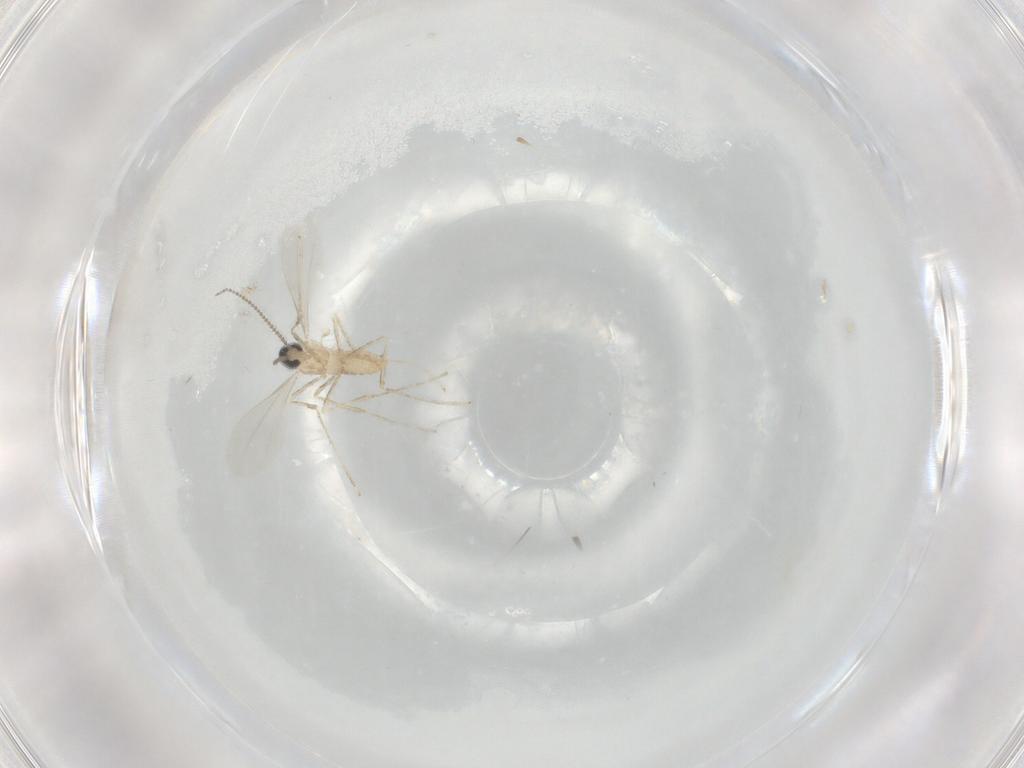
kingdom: Animalia
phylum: Arthropoda
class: Insecta
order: Diptera
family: Cecidomyiidae
